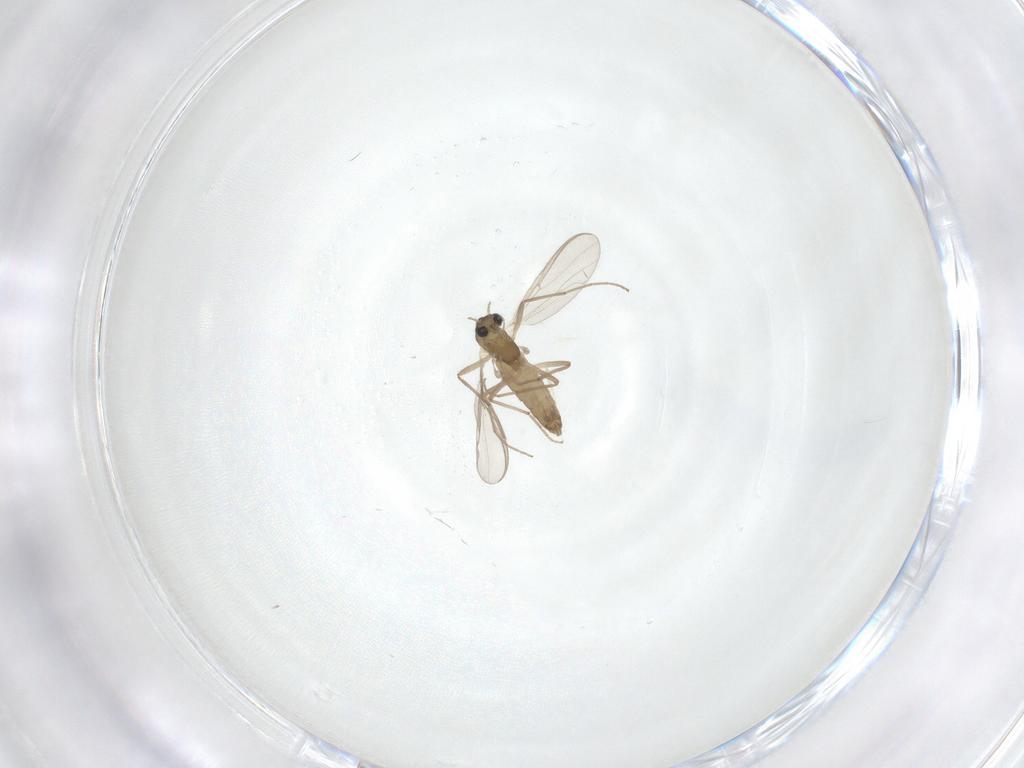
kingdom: Animalia
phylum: Arthropoda
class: Insecta
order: Diptera
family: Chironomidae
